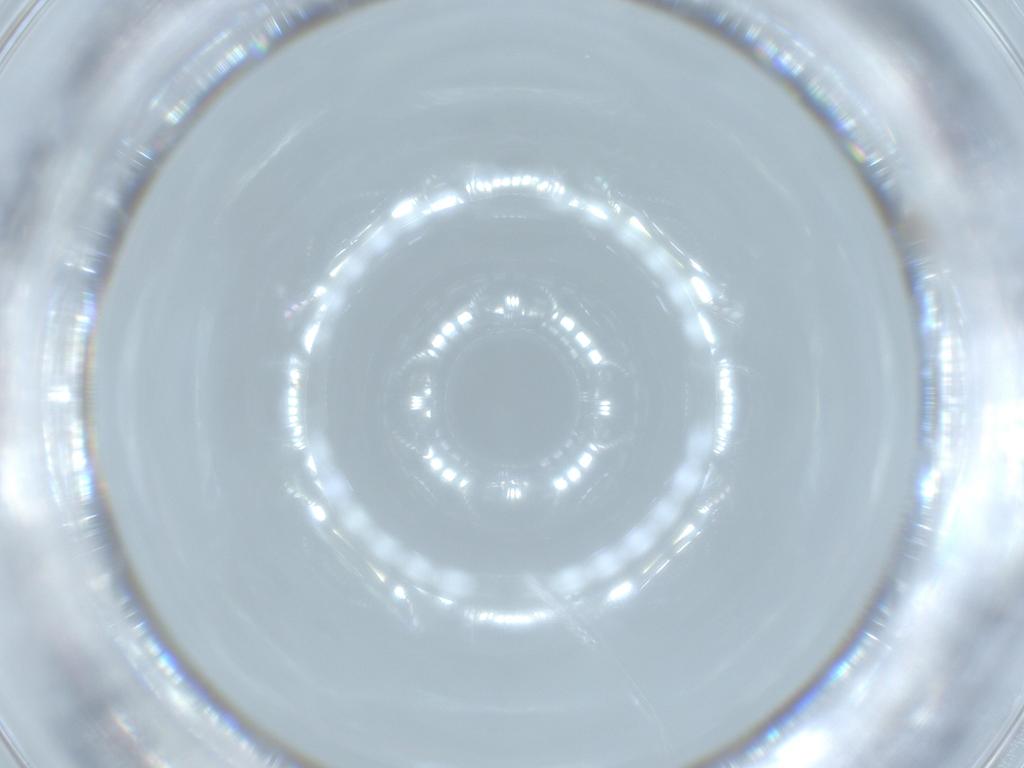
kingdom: Animalia
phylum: Arthropoda
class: Insecta
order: Hymenoptera
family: Trichogrammatidae
